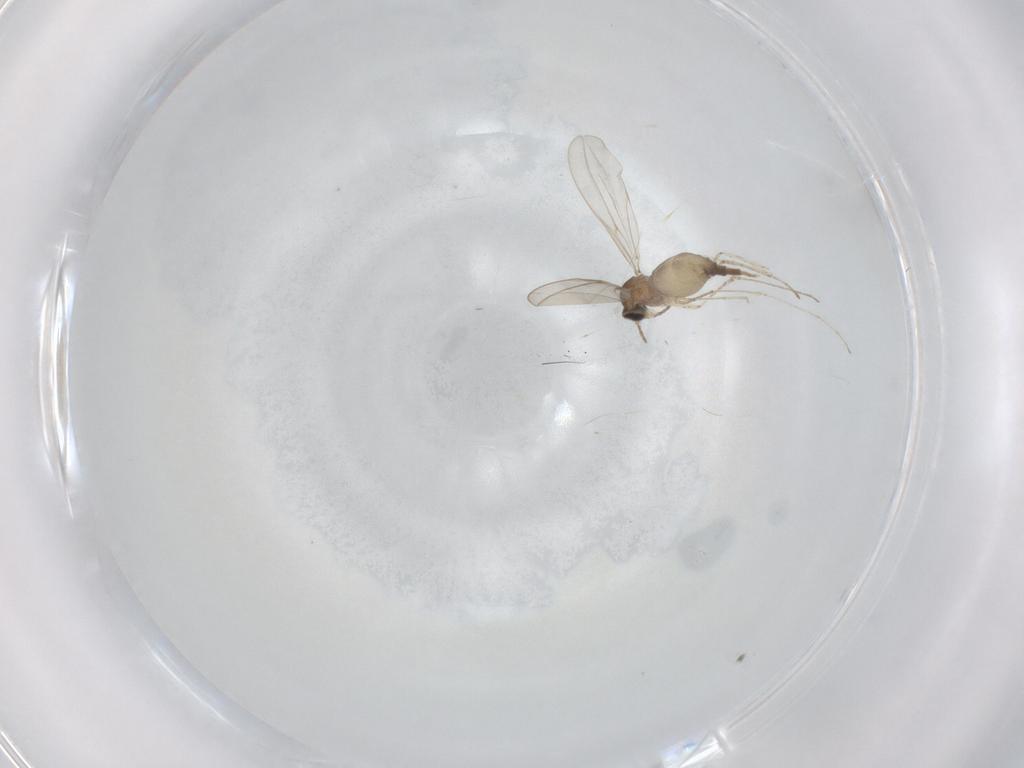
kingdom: Animalia
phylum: Arthropoda
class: Insecta
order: Diptera
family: Cecidomyiidae
